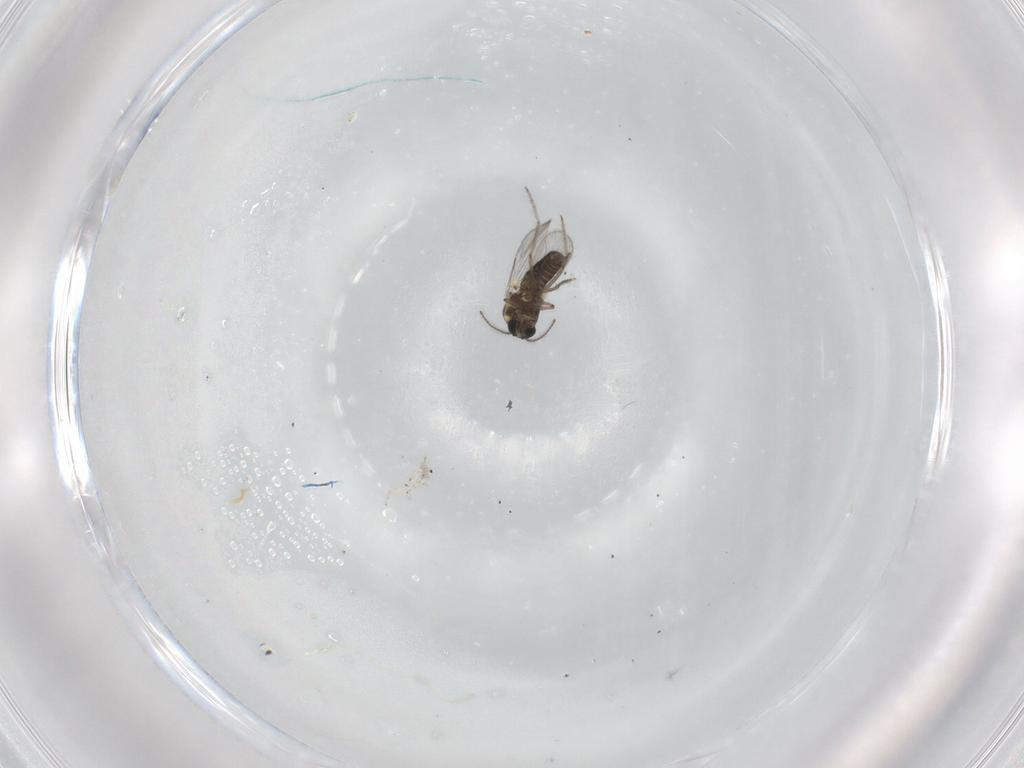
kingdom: Animalia
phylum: Arthropoda
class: Insecta
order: Diptera
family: Ceratopogonidae
